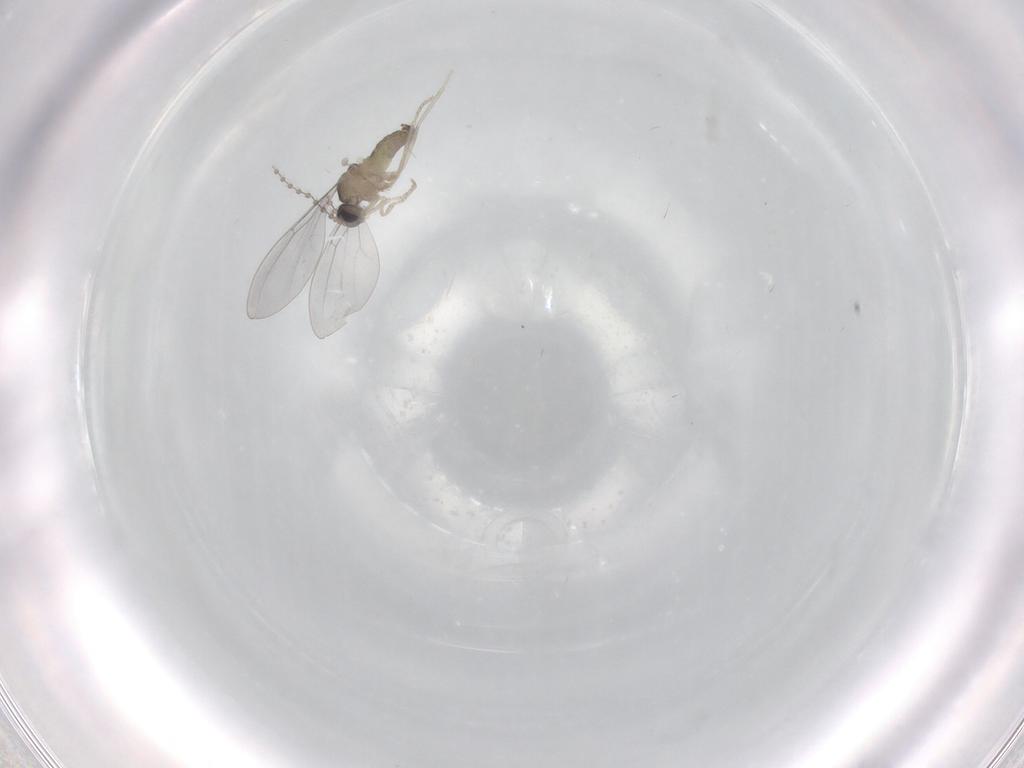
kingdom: Animalia
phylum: Arthropoda
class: Insecta
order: Diptera
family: Cecidomyiidae
